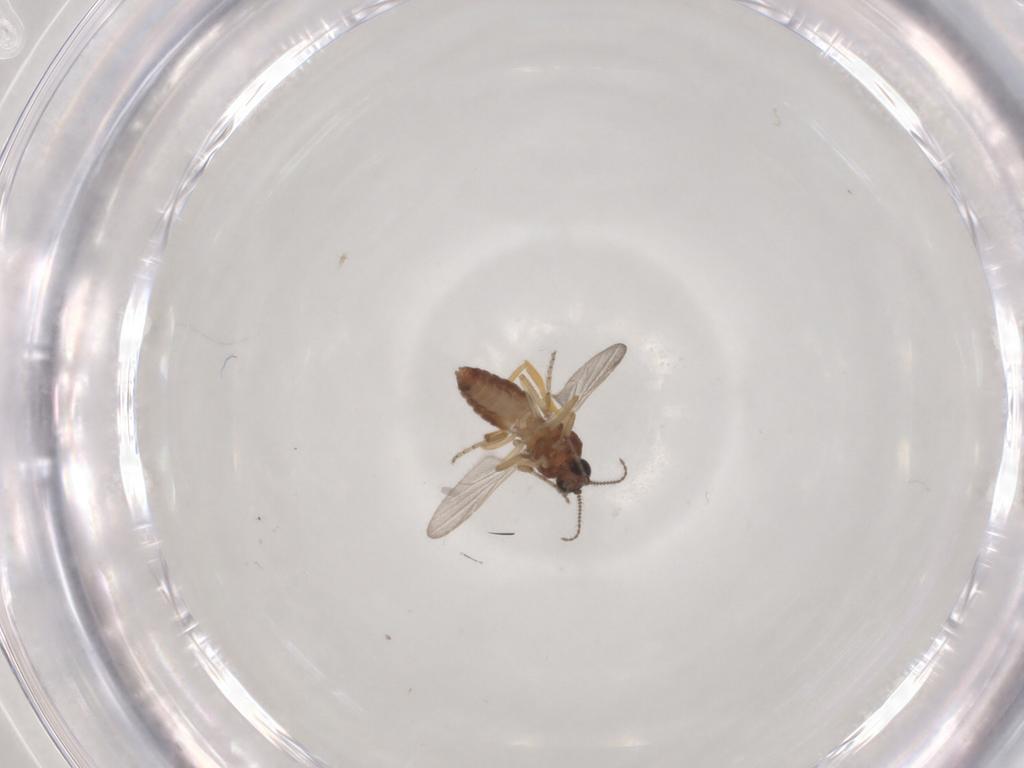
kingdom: Animalia
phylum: Arthropoda
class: Insecta
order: Diptera
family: Ceratopogonidae
